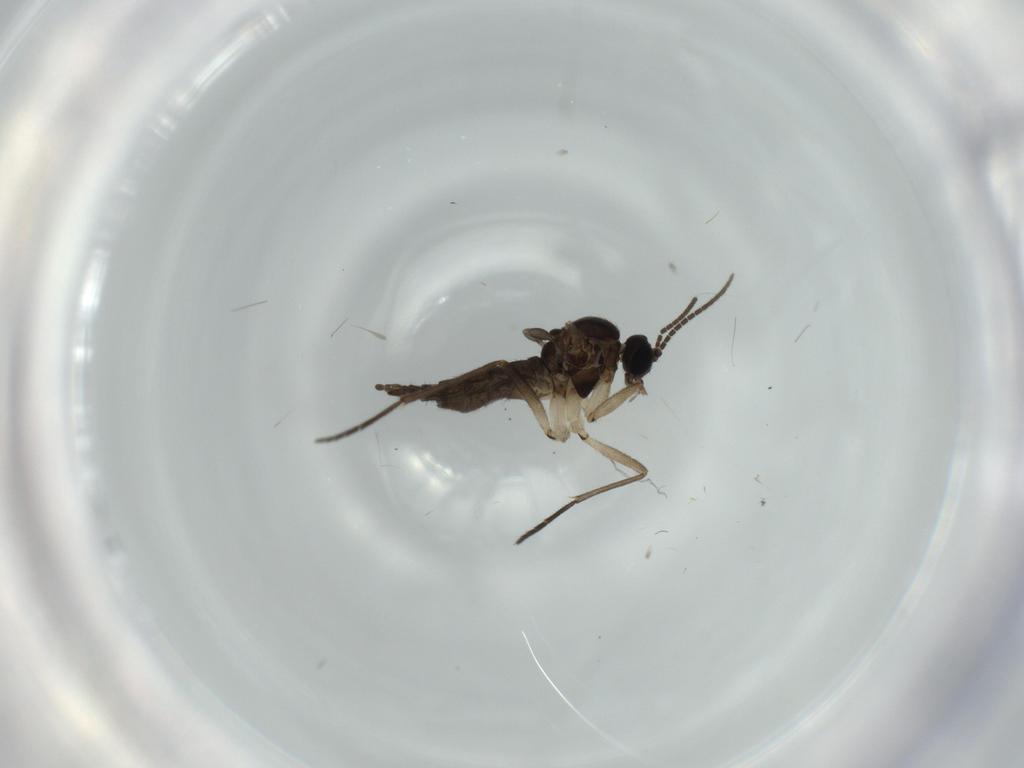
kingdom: Animalia
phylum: Arthropoda
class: Insecta
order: Diptera
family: Sciaridae
